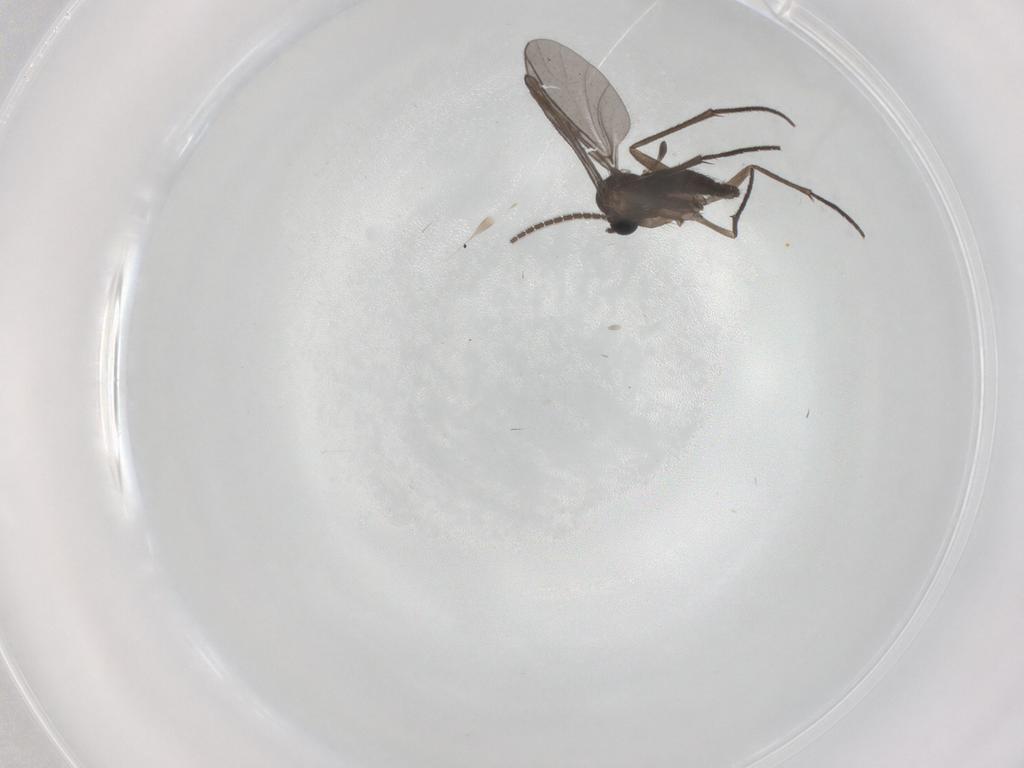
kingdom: Animalia
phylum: Arthropoda
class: Insecta
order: Diptera
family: Sciaridae
